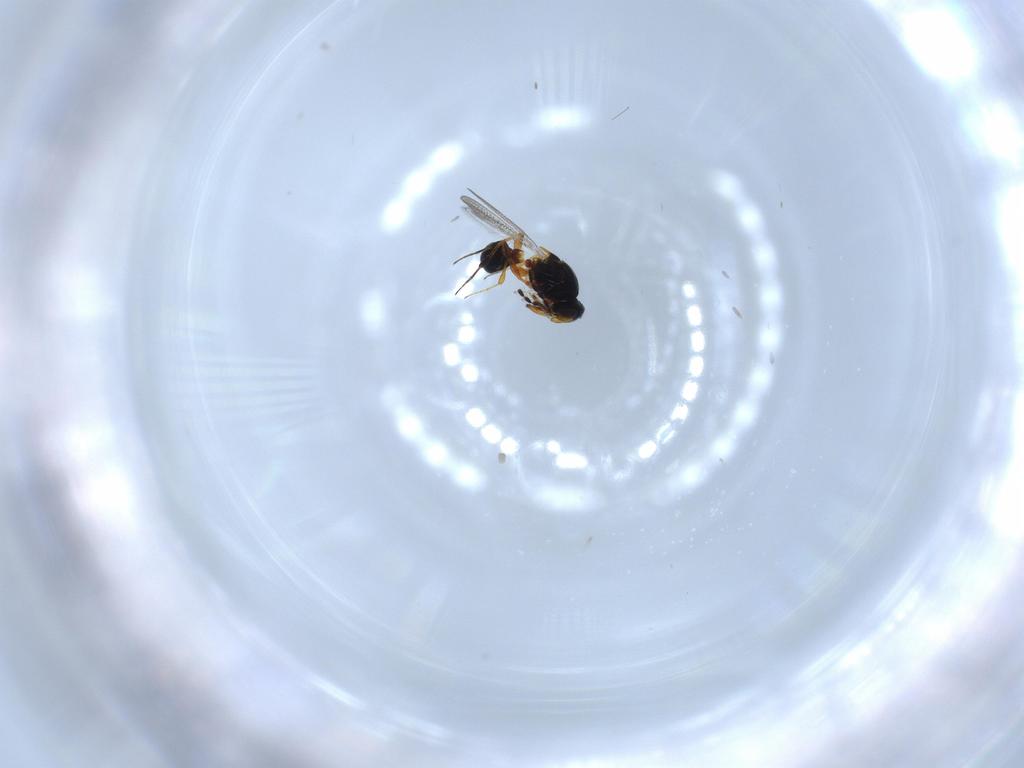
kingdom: Animalia
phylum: Arthropoda
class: Insecta
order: Hymenoptera
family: Platygastridae
